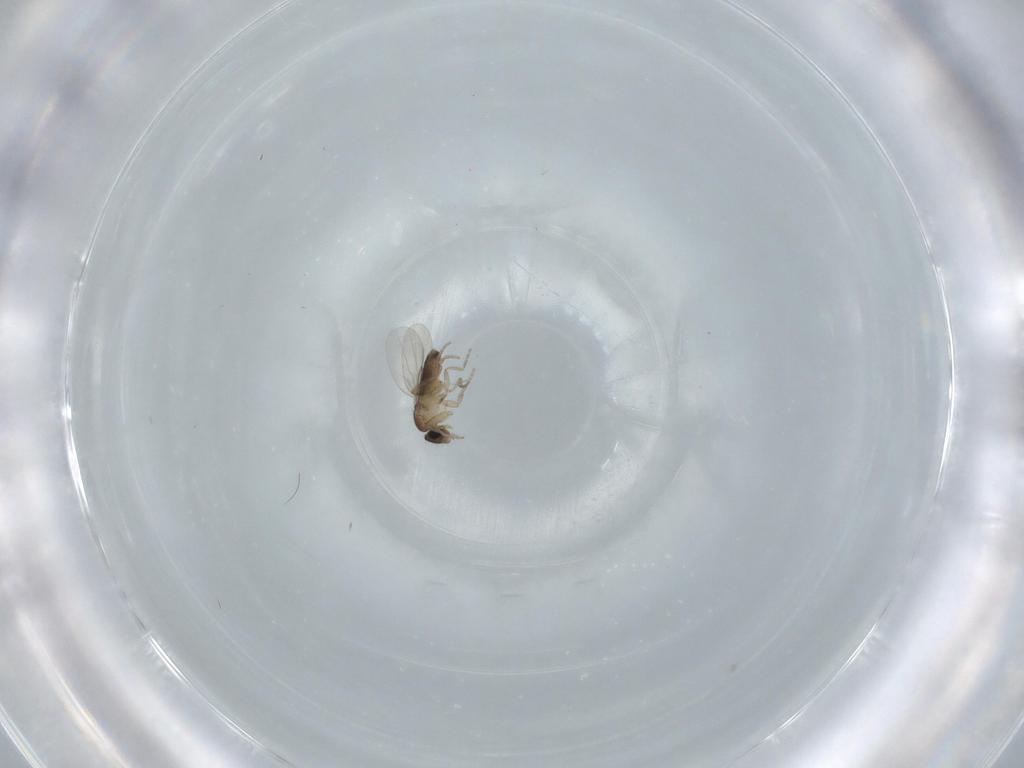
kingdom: Animalia
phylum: Arthropoda
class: Insecta
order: Diptera
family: Phoridae
